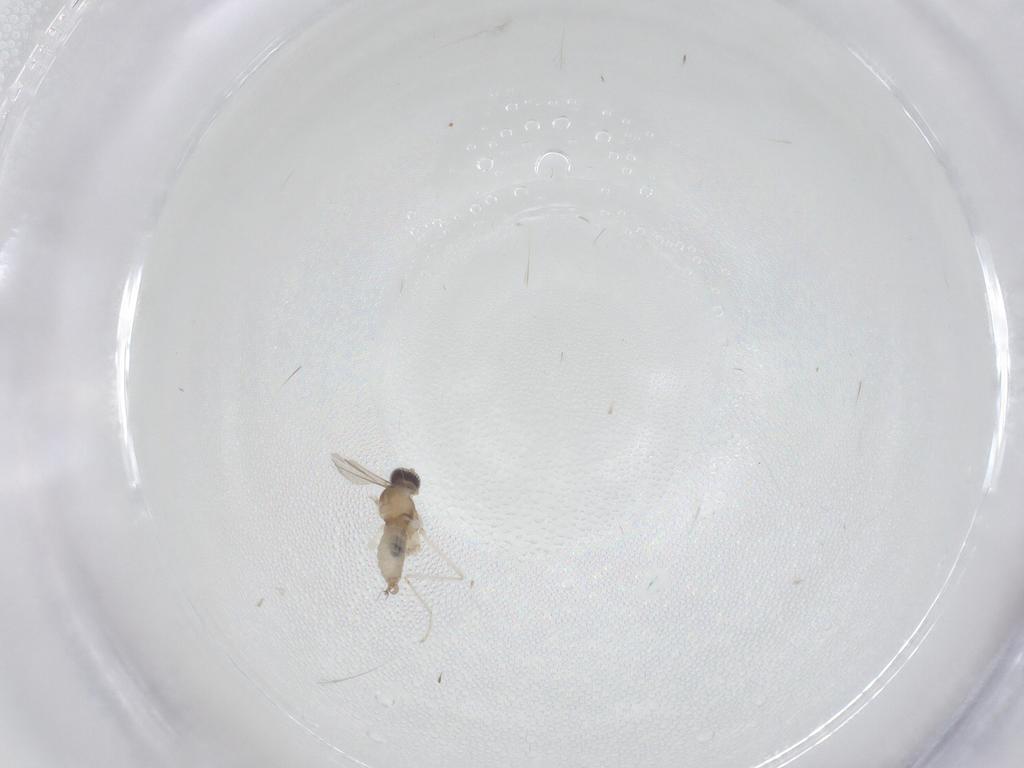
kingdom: Animalia
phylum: Arthropoda
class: Insecta
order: Diptera
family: Cecidomyiidae
